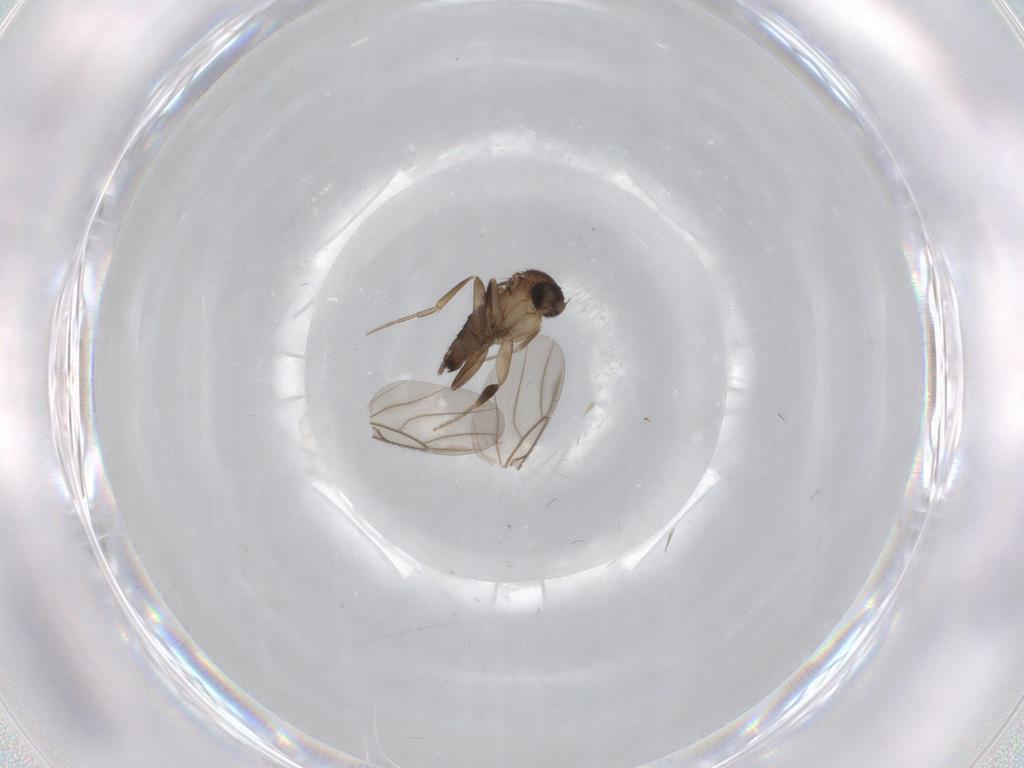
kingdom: Animalia
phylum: Arthropoda
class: Insecta
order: Diptera
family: Phoridae
